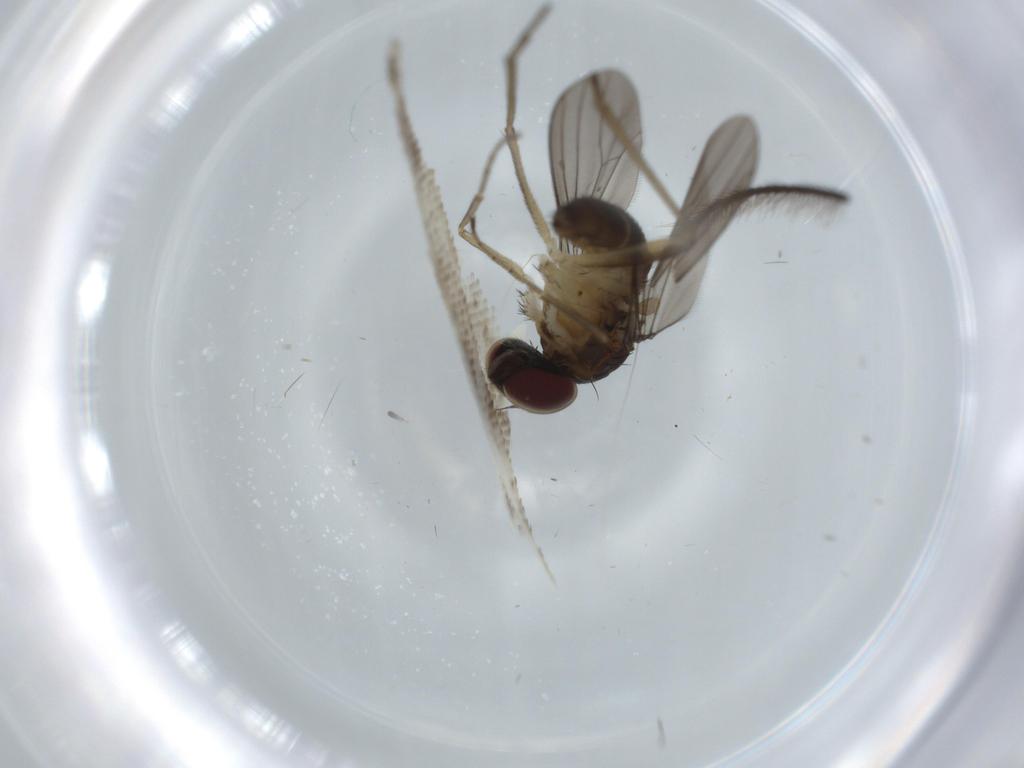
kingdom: Animalia
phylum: Arthropoda
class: Insecta
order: Diptera
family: Dolichopodidae
